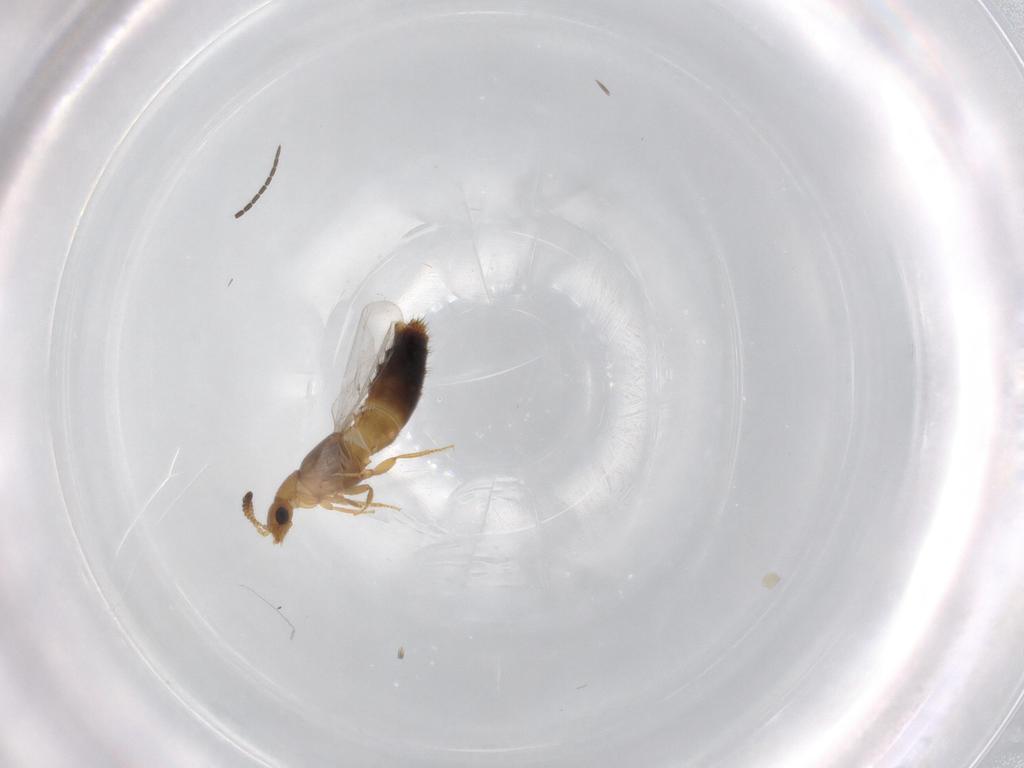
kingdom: Animalia
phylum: Arthropoda
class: Insecta
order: Coleoptera
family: Staphylinidae
